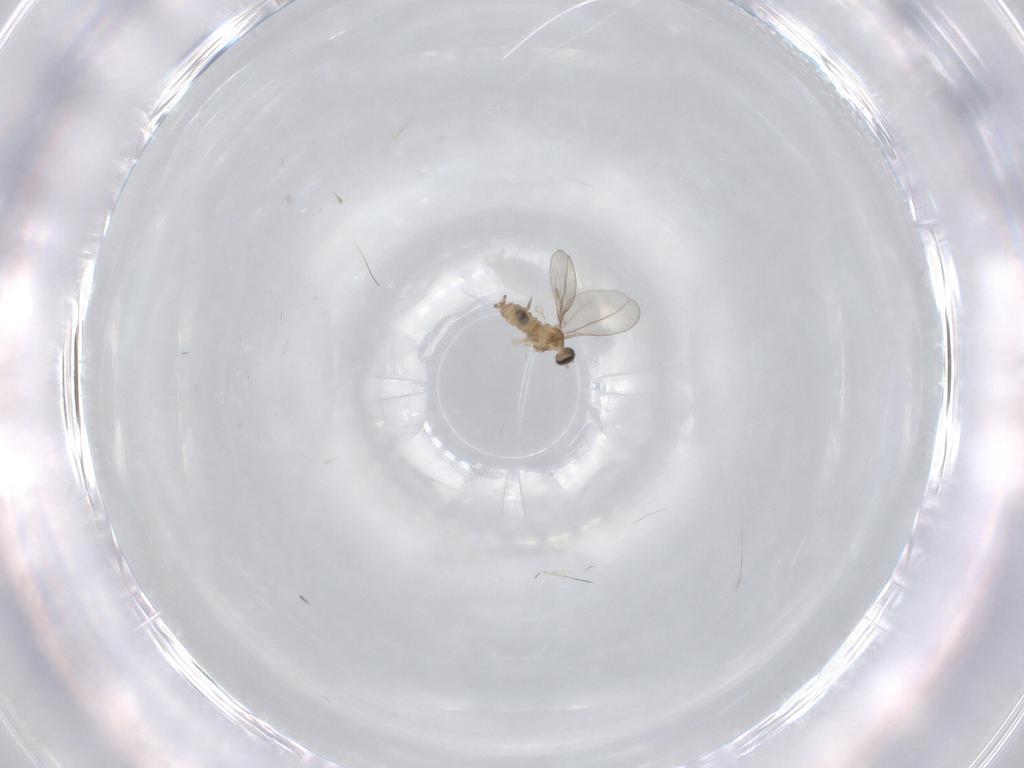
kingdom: Animalia
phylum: Arthropoda
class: Insecta
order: Diptera
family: Cecidomyiidae
